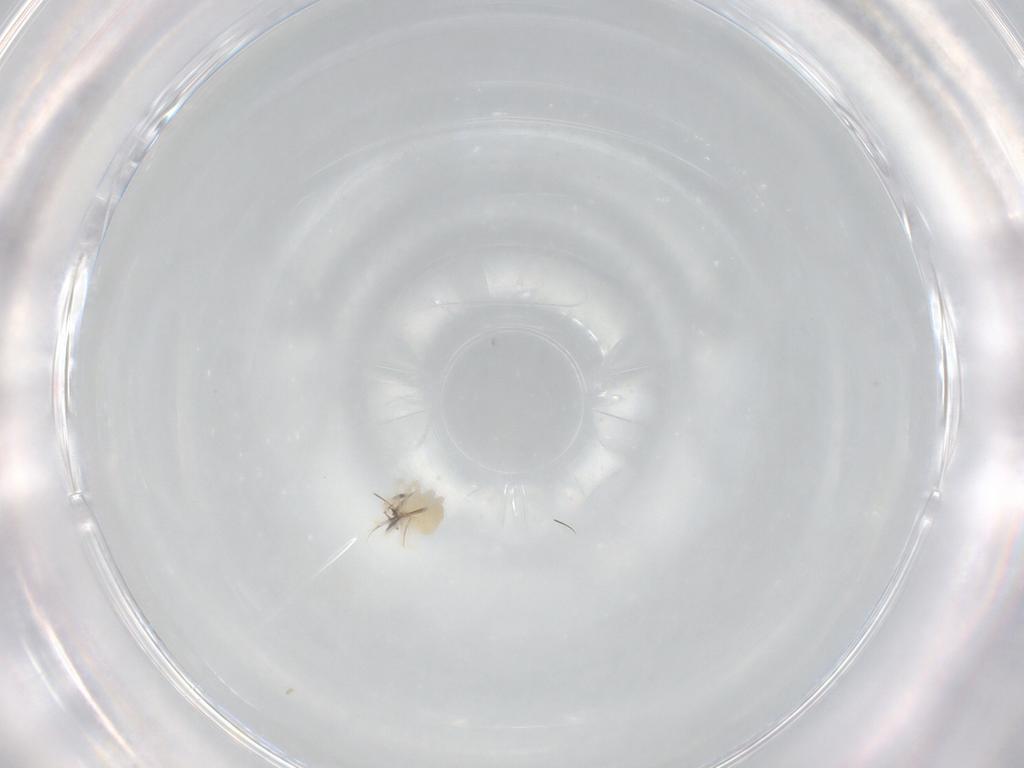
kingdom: Animalia
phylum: Arthropoda
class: Arachnida
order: Trombidiformes
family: Anystidae
